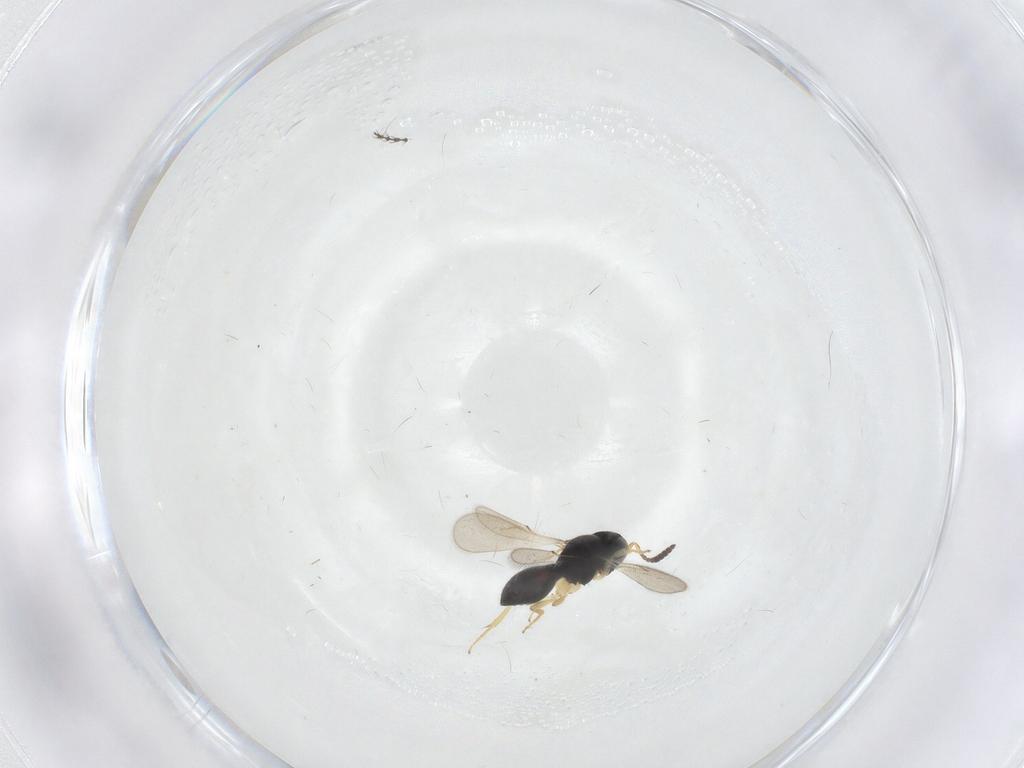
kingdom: Animalia
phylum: Arthropoda
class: Insecta
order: Hymenoptera
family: Scelionidae
